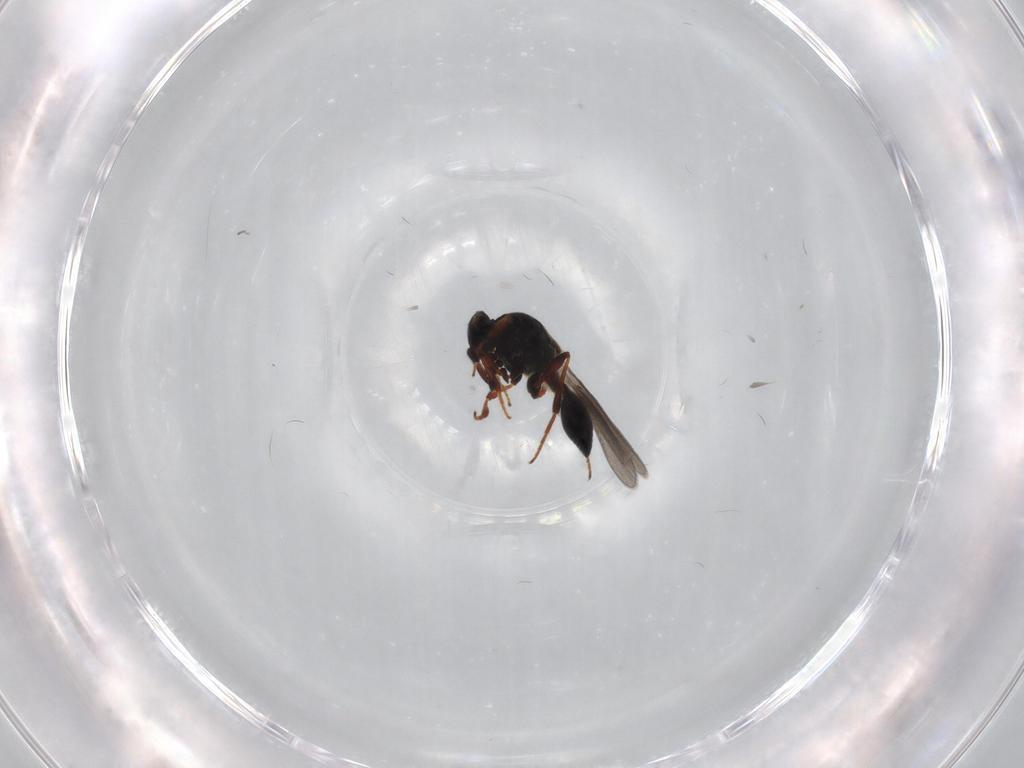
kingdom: Animalia
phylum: Arthropoda
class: Insecta
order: Hymenoptera
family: Platygastridae
